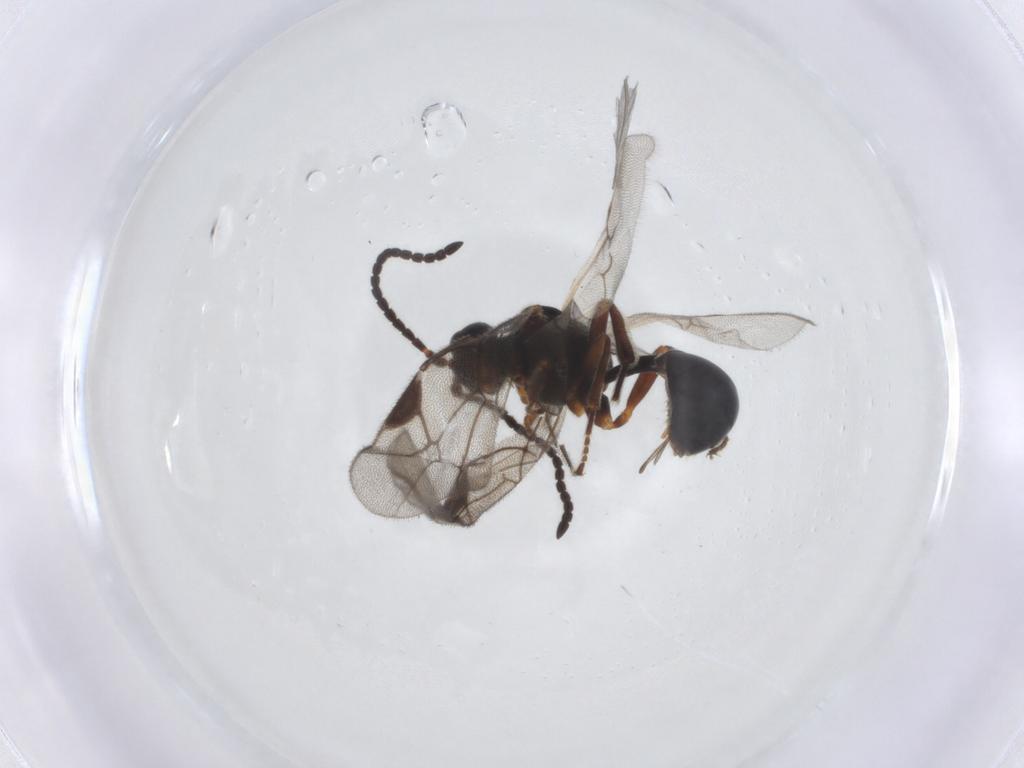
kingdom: Animalia
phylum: Arthropoda
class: Insecta
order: Hymenoptera
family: Ichneumonidae
